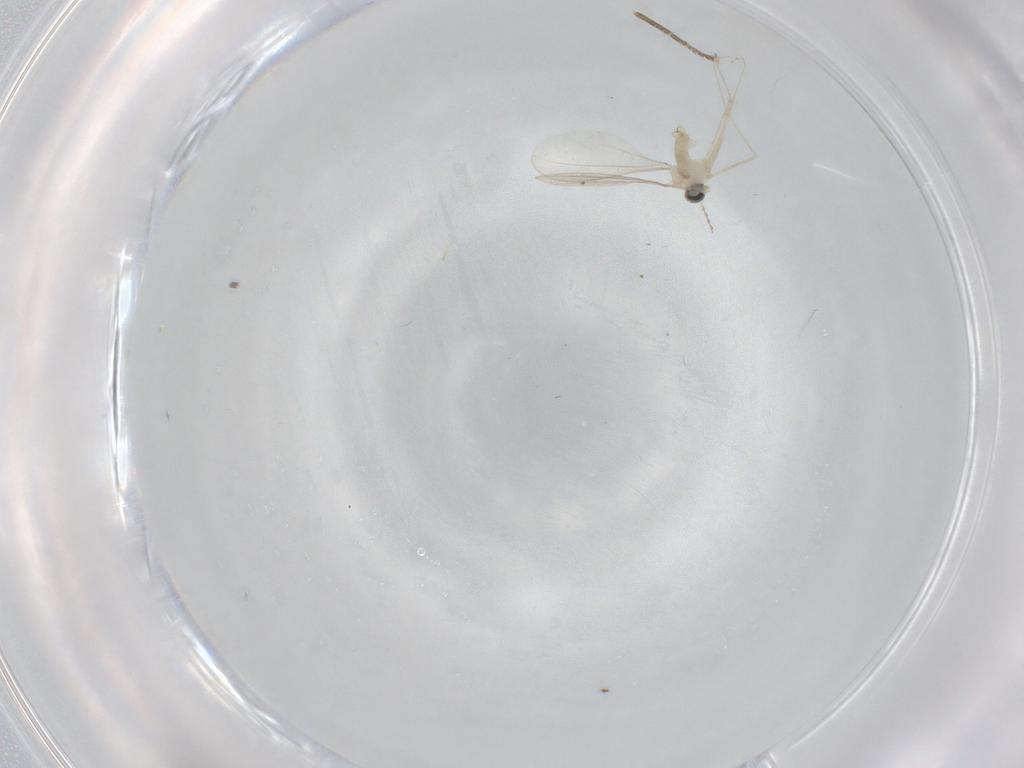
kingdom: Animalia
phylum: Arthropoda
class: Insecta
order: Diptera
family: Cecidomyiidae
